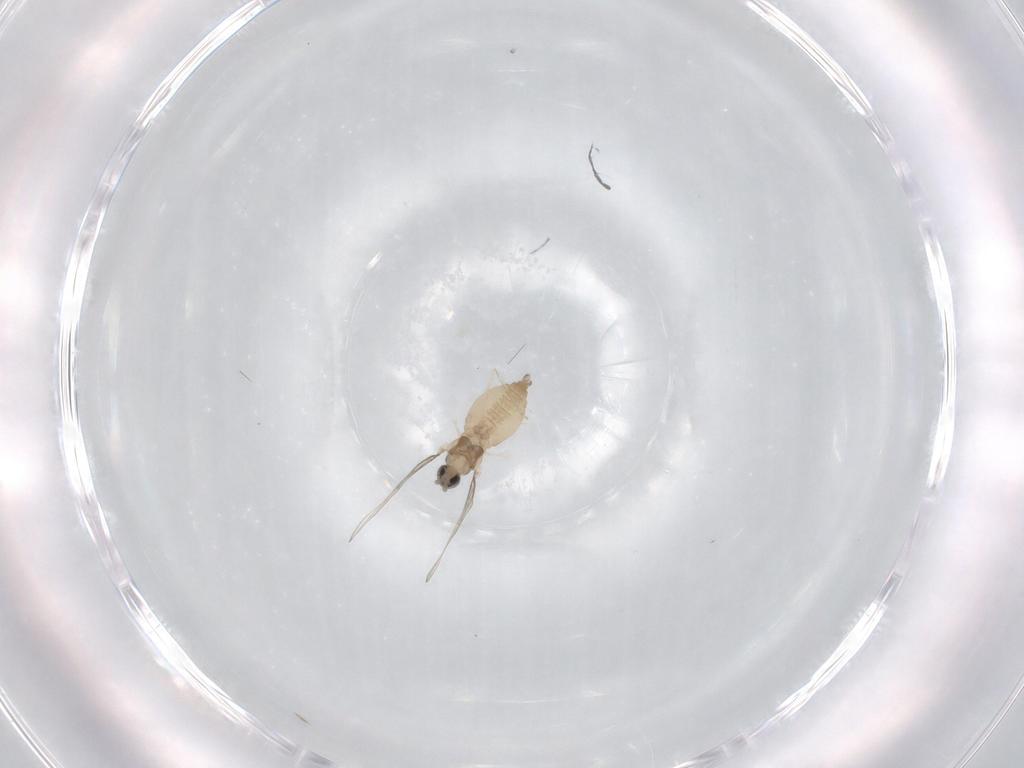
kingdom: Animalia
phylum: Arthropoda
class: Insecta
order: Diptera
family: Cecidomyiidae
